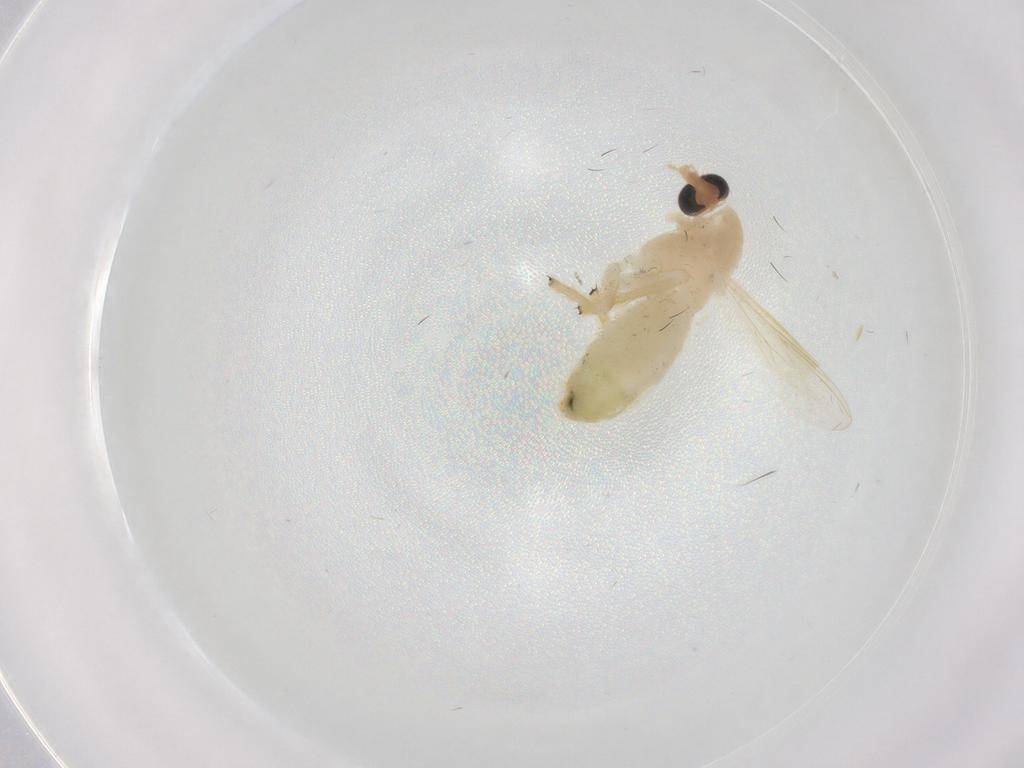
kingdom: Animalia
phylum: Arthropoda
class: Insecta
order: Diptera
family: Chironomidae
